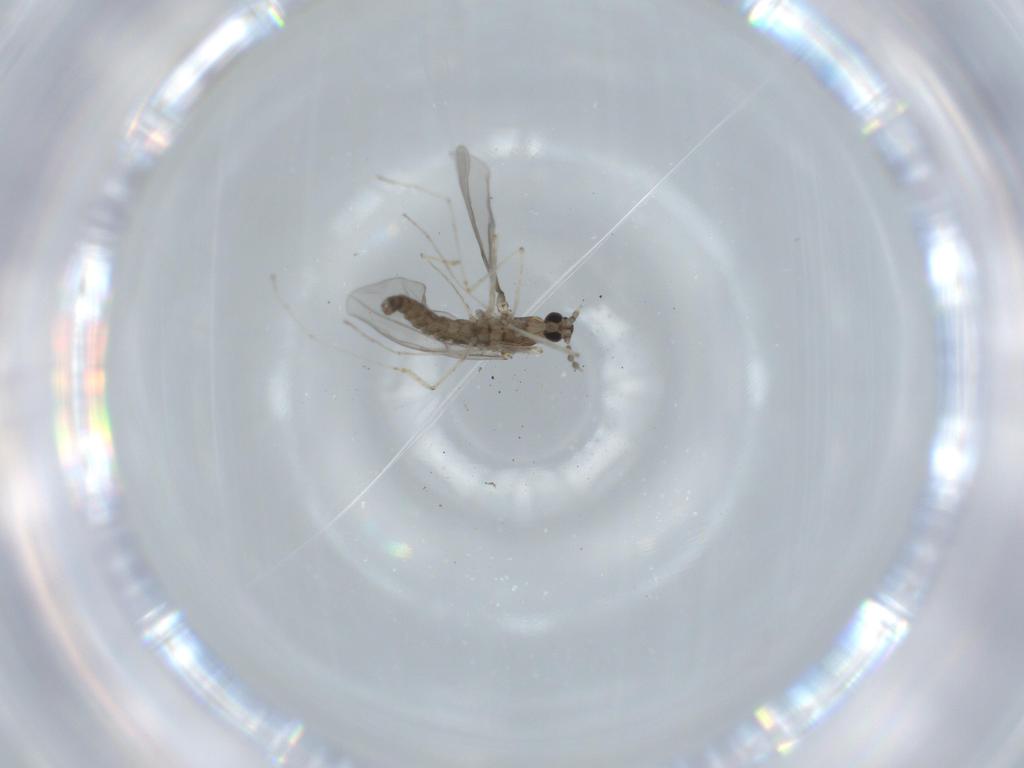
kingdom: Animalia
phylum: Arthropoda
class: Insecta
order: Diptera
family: Cecidomyiidae
